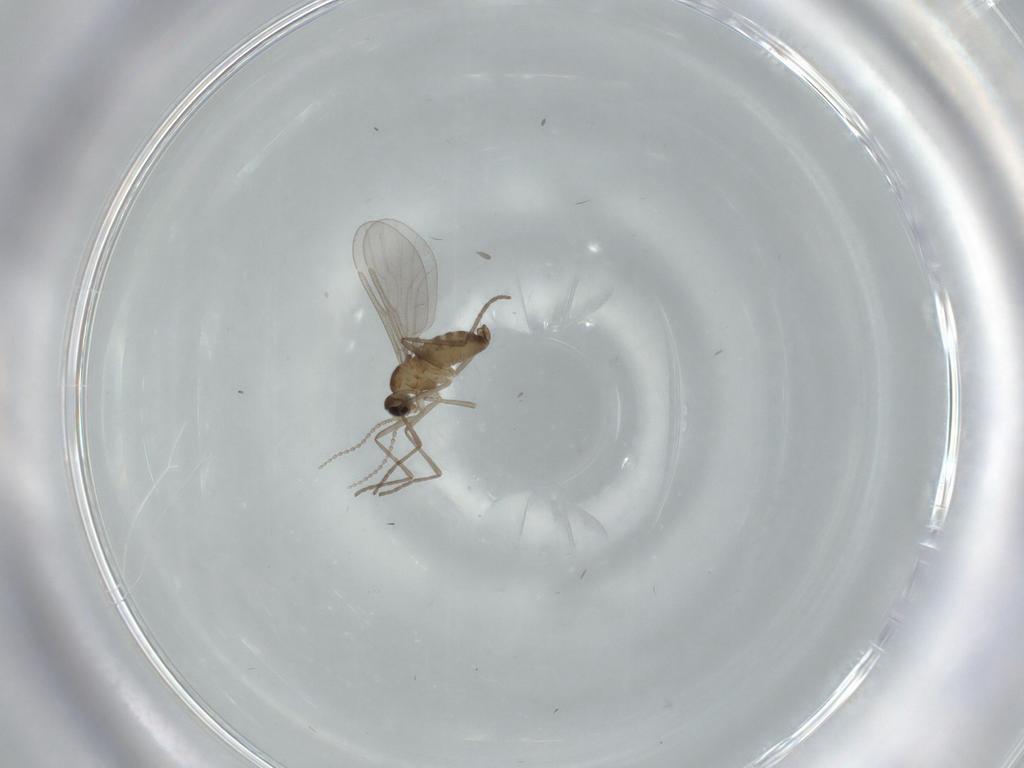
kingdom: Animalia
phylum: Arthropoda
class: Insecta
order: Diptera
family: Cecidomyiidae
